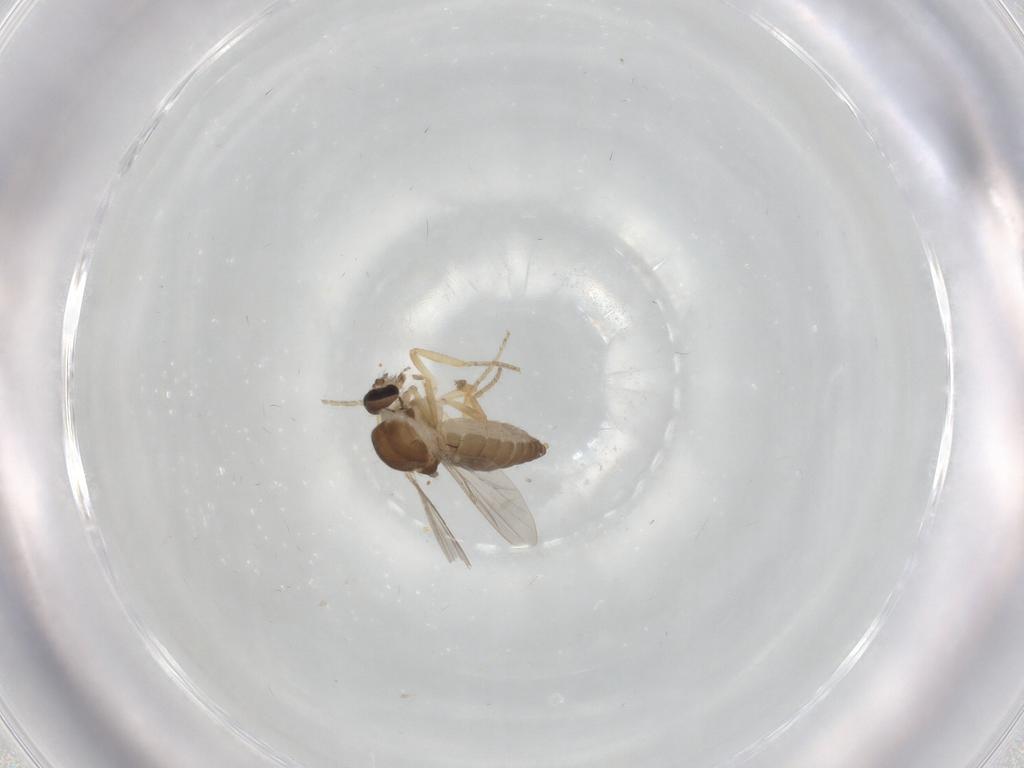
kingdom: Animalia
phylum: Arthropoda
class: Insecta
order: Diptera
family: Ceratopogonidae
